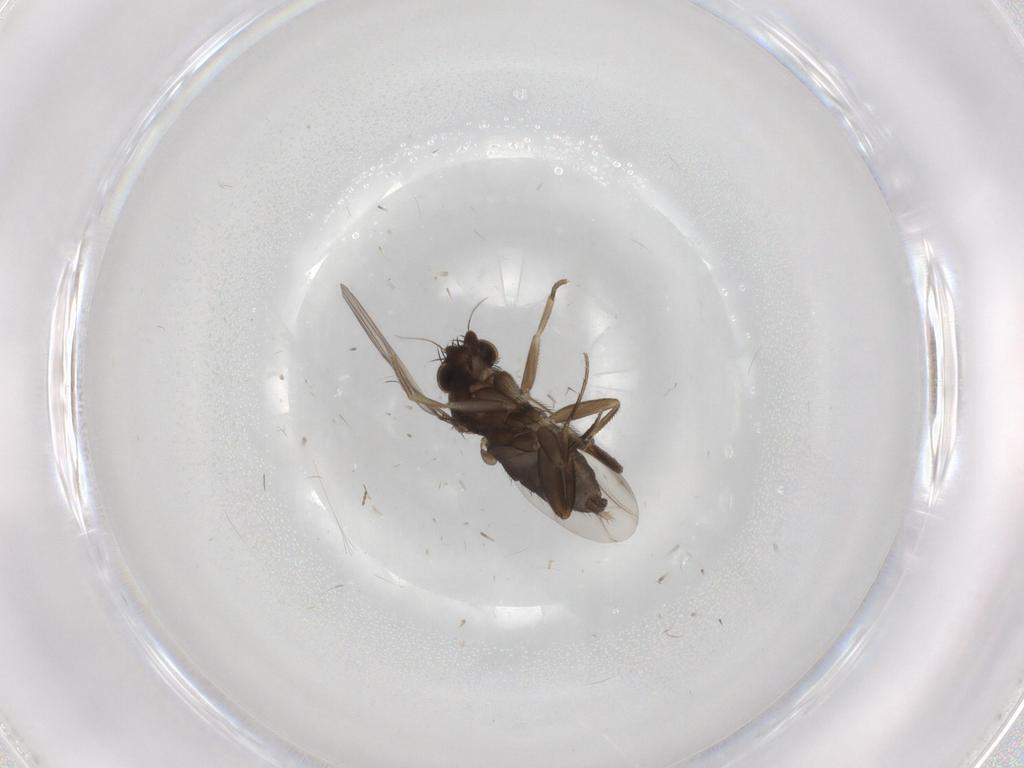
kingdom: Animalia
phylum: Arthropoda
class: Insecta
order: Diptera
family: Phoridae
